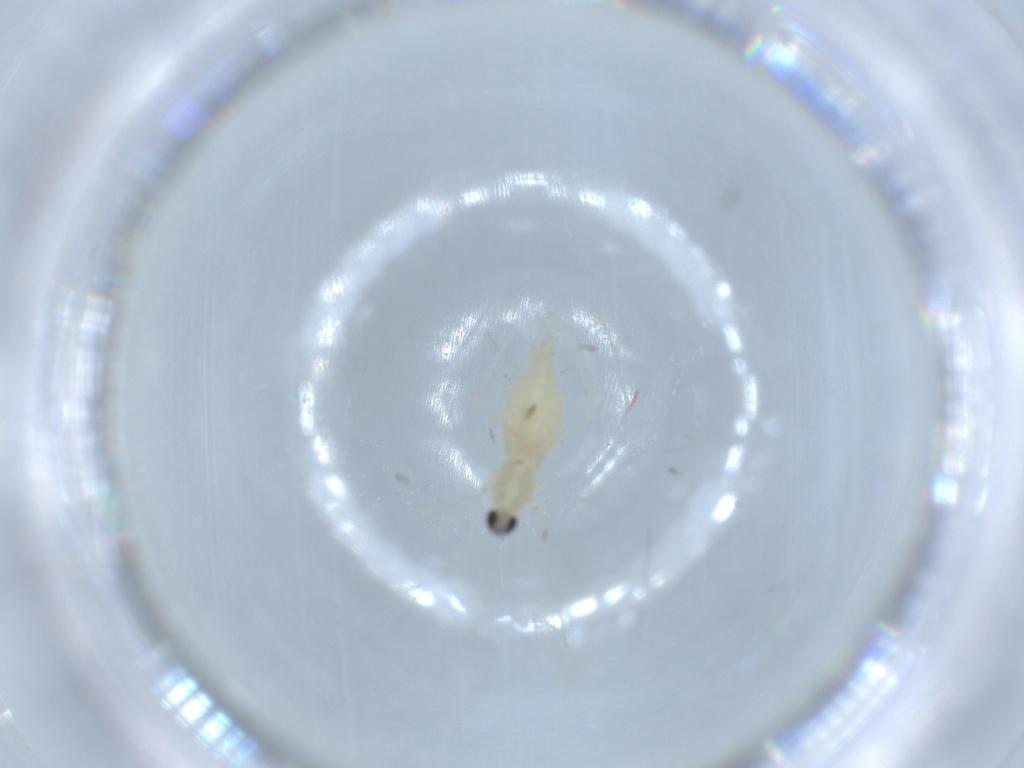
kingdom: Animalia
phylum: Arthropoda
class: Insecta
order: Diptera
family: Cecidomyiidae
